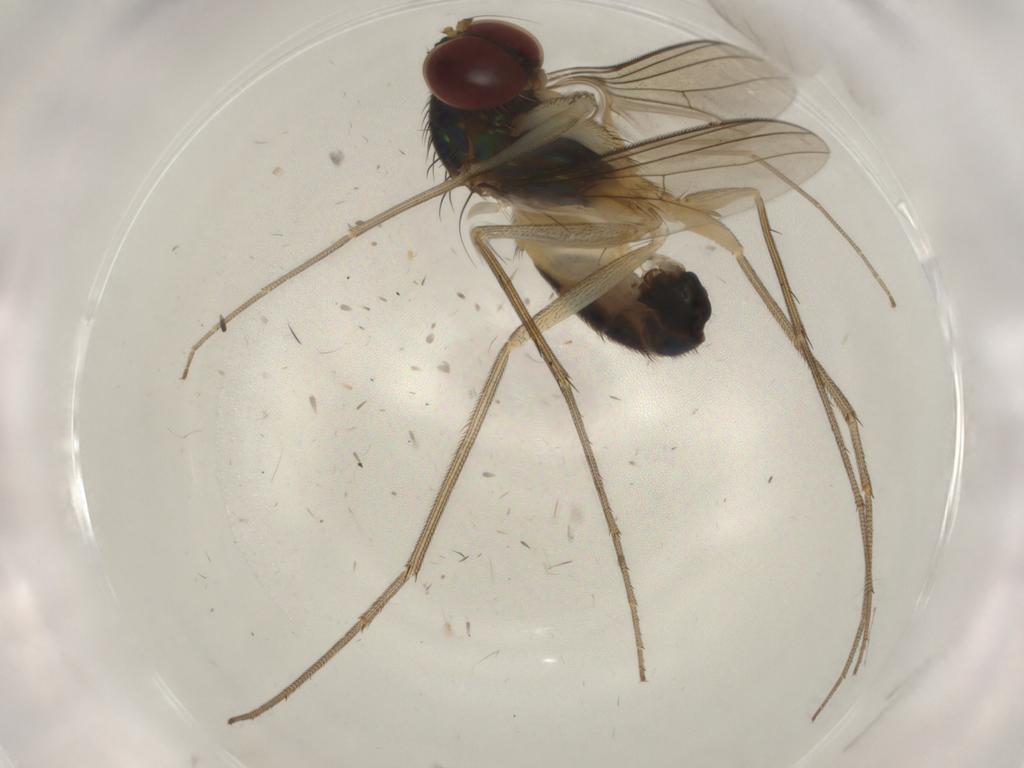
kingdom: Animalia
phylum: Arthropoda
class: Insecta
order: Diptera
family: Dolichopodidae
